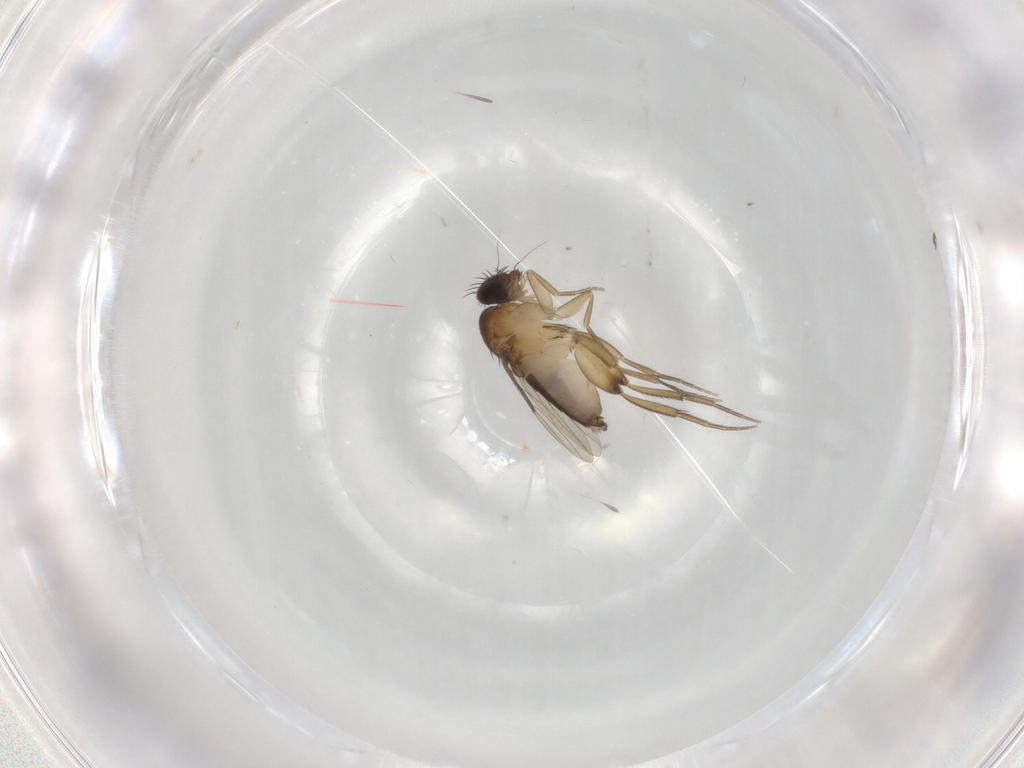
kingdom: Animalia
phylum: Arthropoda
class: Insecta
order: Diptera
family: Phoridae
